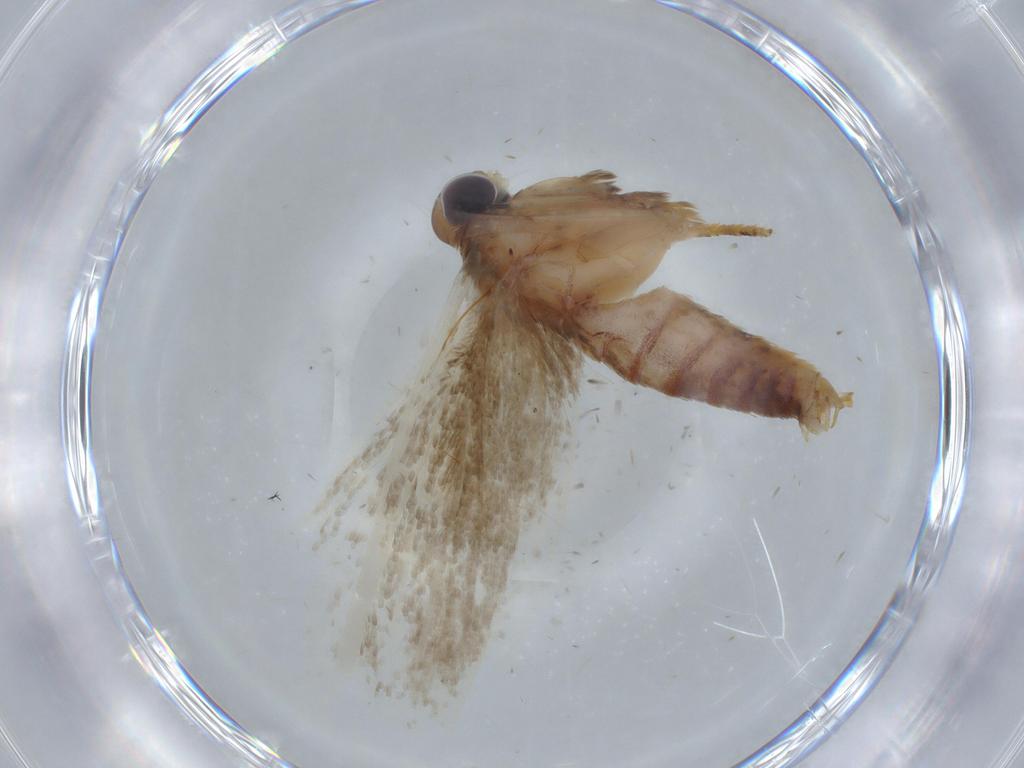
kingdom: Animalia
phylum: Arthropoda
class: Insecta
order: Lepidoptera
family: Blastobasidae
